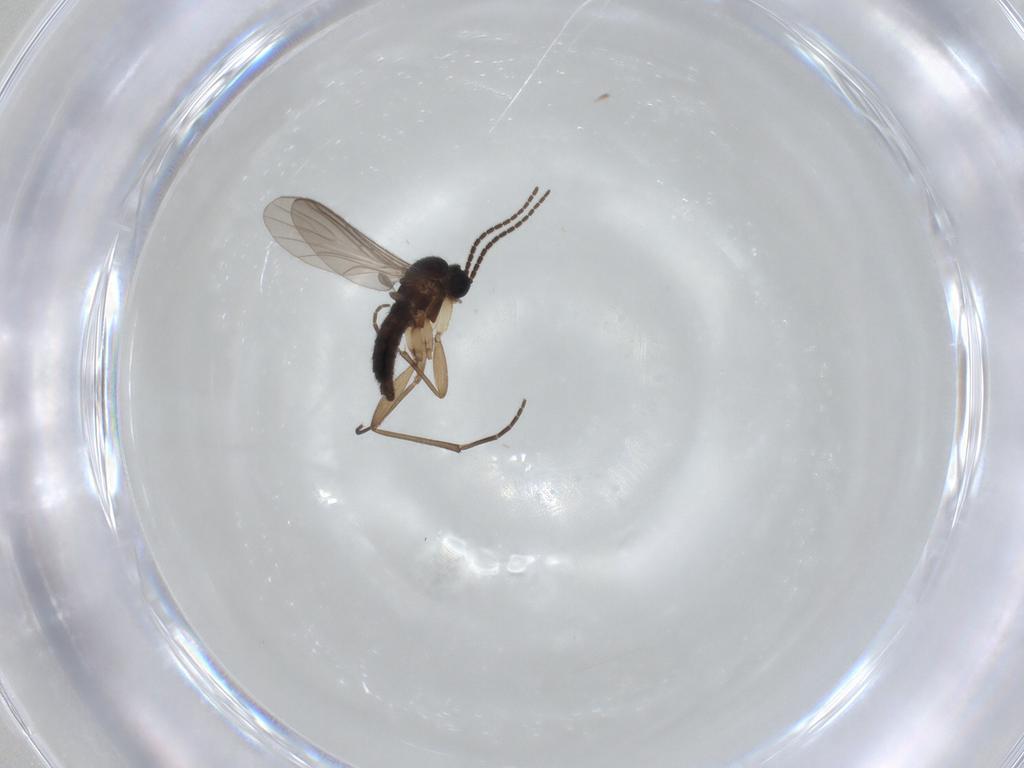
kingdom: Animalia
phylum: Arthropoda
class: Insecta
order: Diptera
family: Sciaridae
